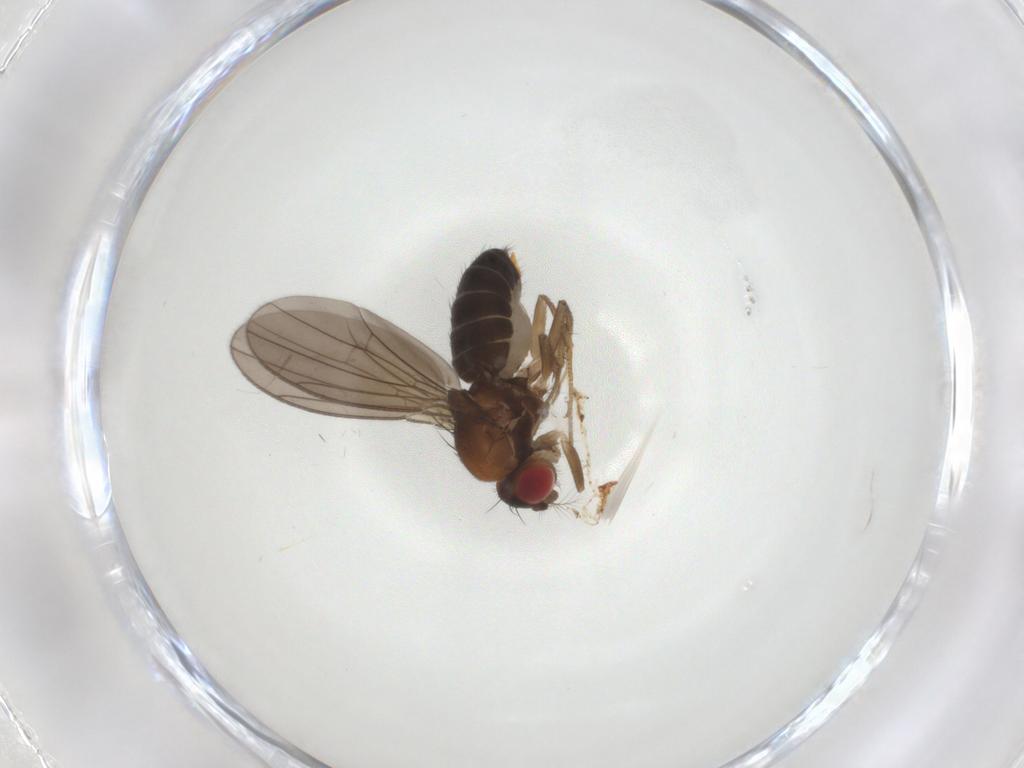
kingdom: Animalia
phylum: Arthropoda
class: Insecta
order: Diptera
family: Drosophilidae
